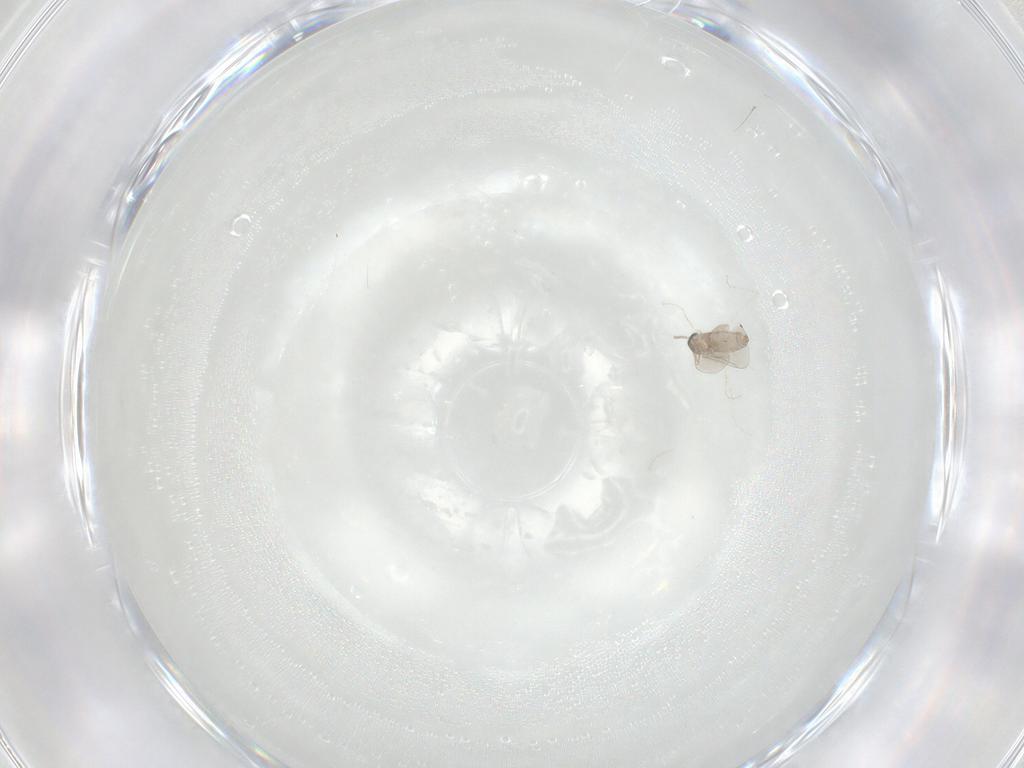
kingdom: Animalia
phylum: Arthropoda
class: Insecta
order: Diptera
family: Cecidomyiidae
